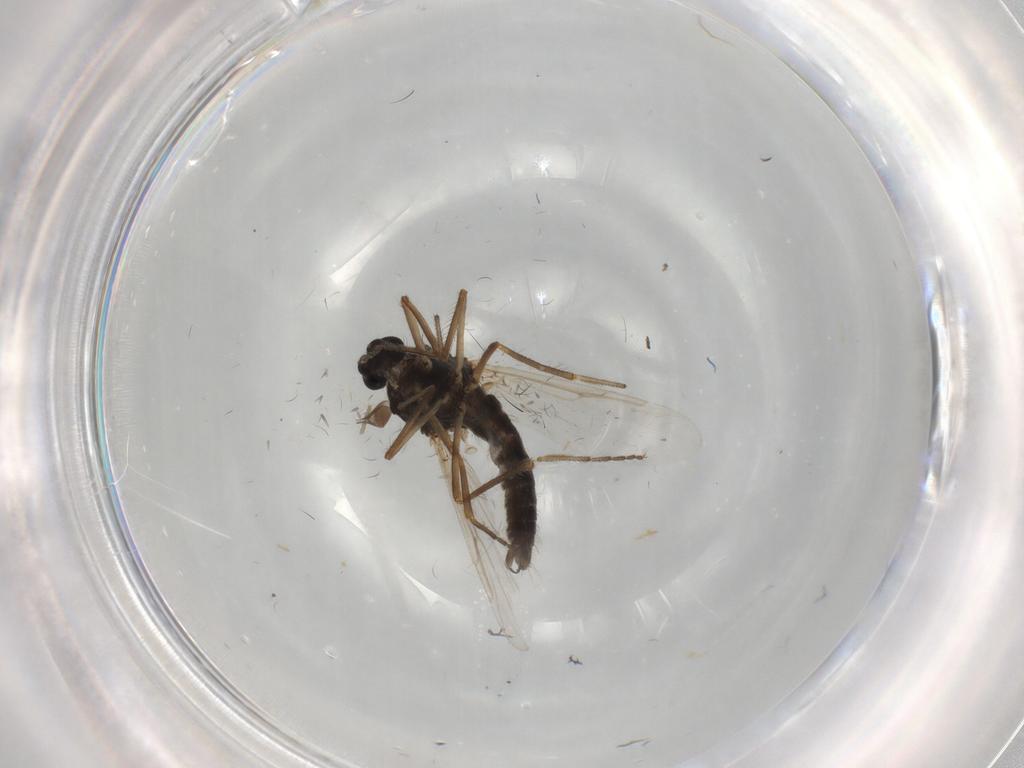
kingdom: Animalia
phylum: Arthropoda
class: Insecta
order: Diptera
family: Ceratopogonidae
